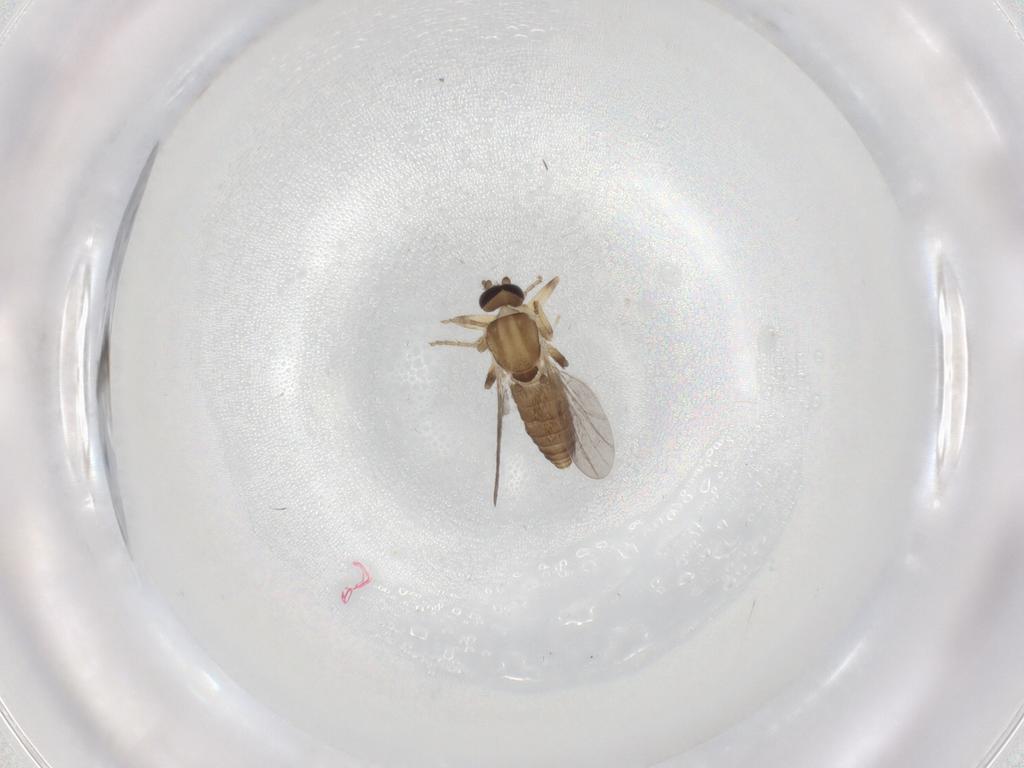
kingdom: Animalia
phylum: Arthropoda
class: Insecta
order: Diptera
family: Ceratopogonidae
